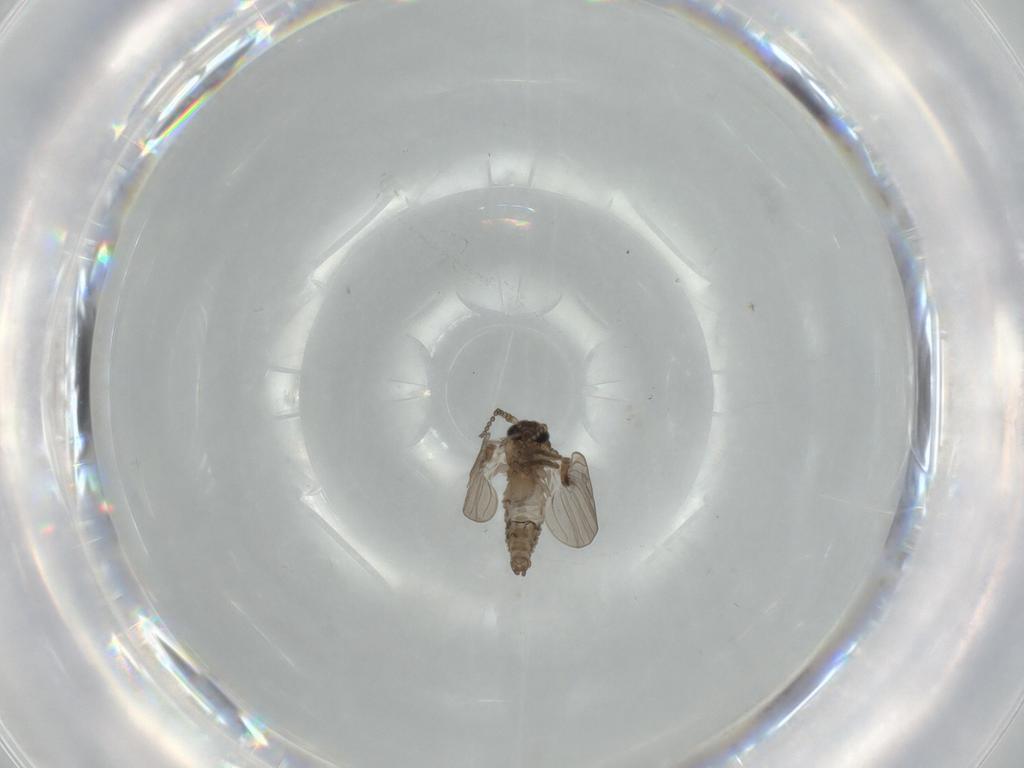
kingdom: Animalia
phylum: Arthropoda
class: Insecta
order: Diptera
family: Psychodidae
